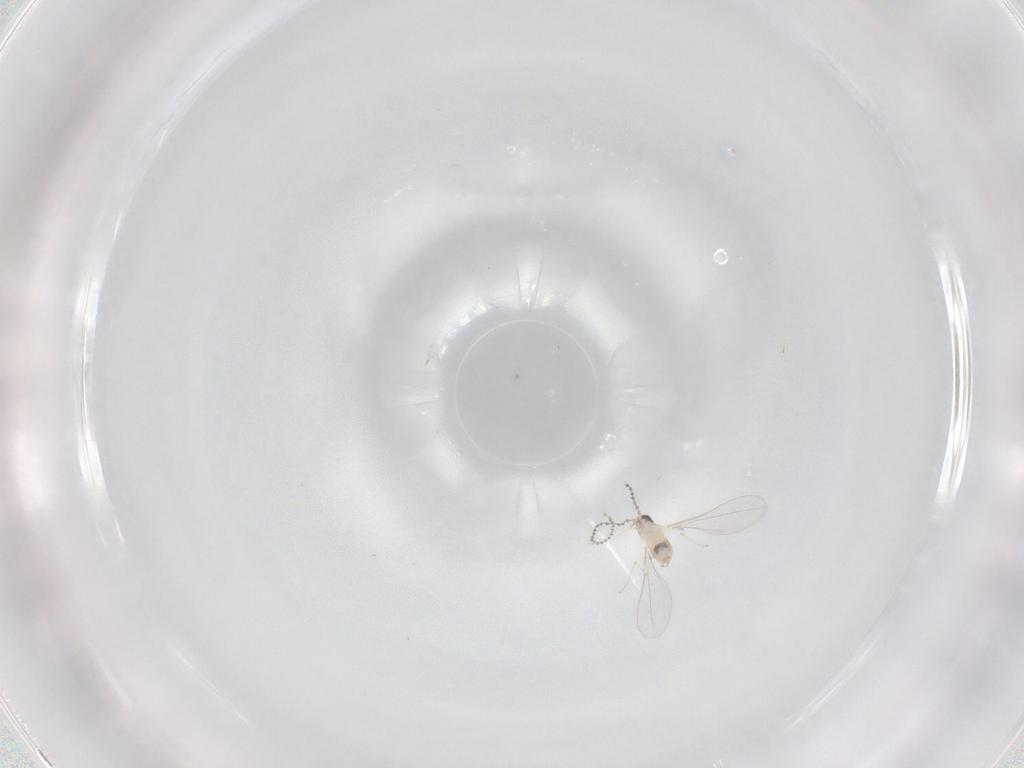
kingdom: Animalia
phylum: Arthropoda
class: Insecta
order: Diptera
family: Cecidomyiidae
